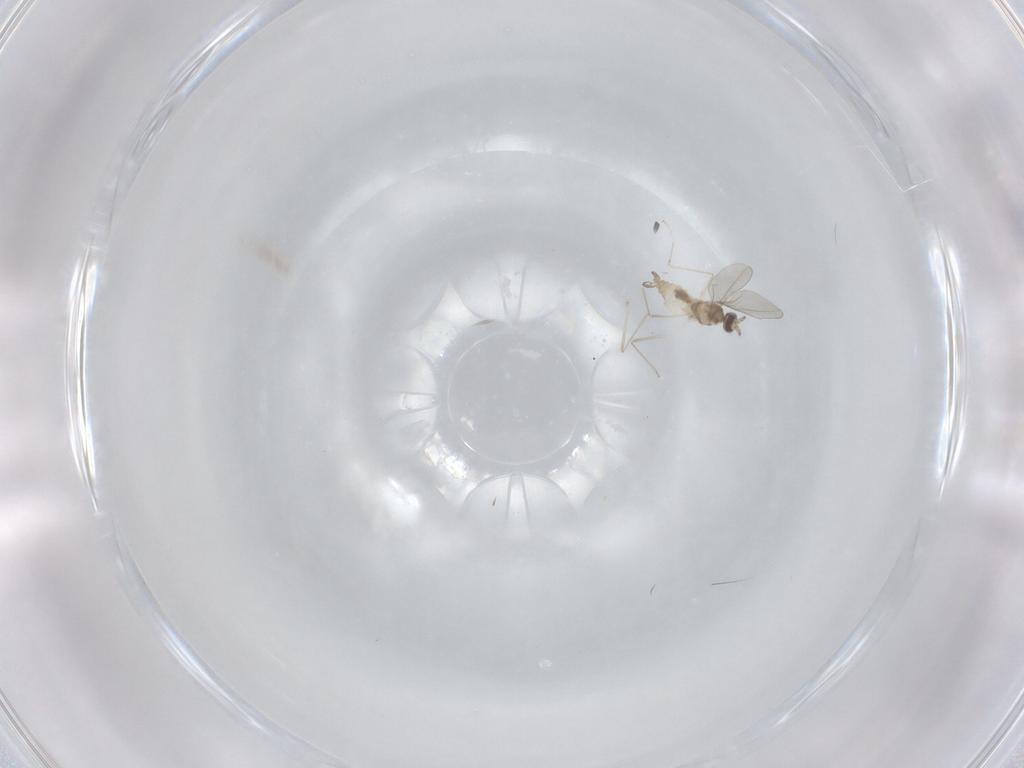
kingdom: Animalia
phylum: Arthropoda
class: Insecta
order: Diptera
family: Cecidomyiidae
